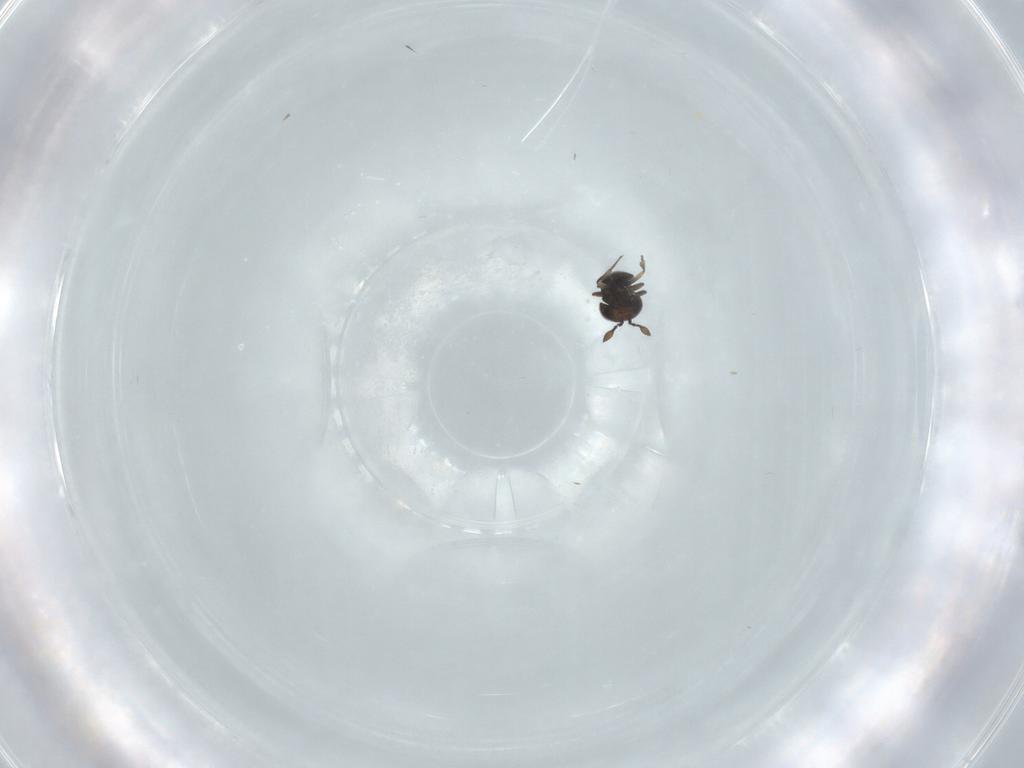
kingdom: Animalia
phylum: Arthropoda
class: Insecta
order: Hymenoptera
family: Scelionidae
